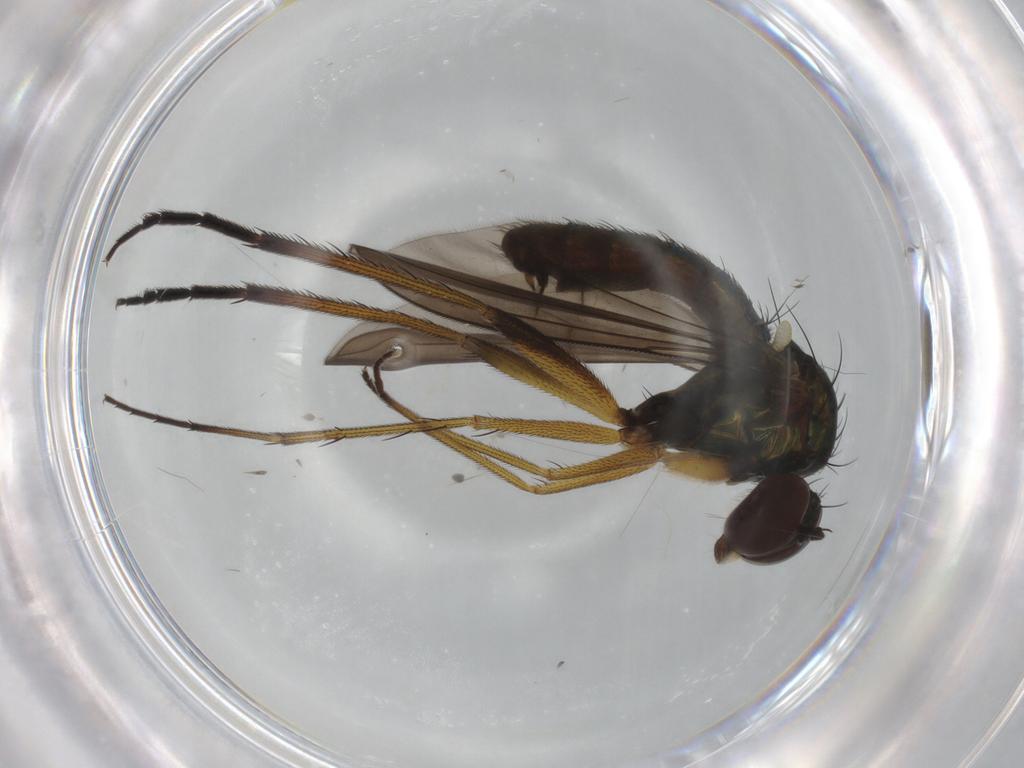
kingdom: Animalia
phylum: Arthropoda
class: Insecta
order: Diptera
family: Dolichopodidae
